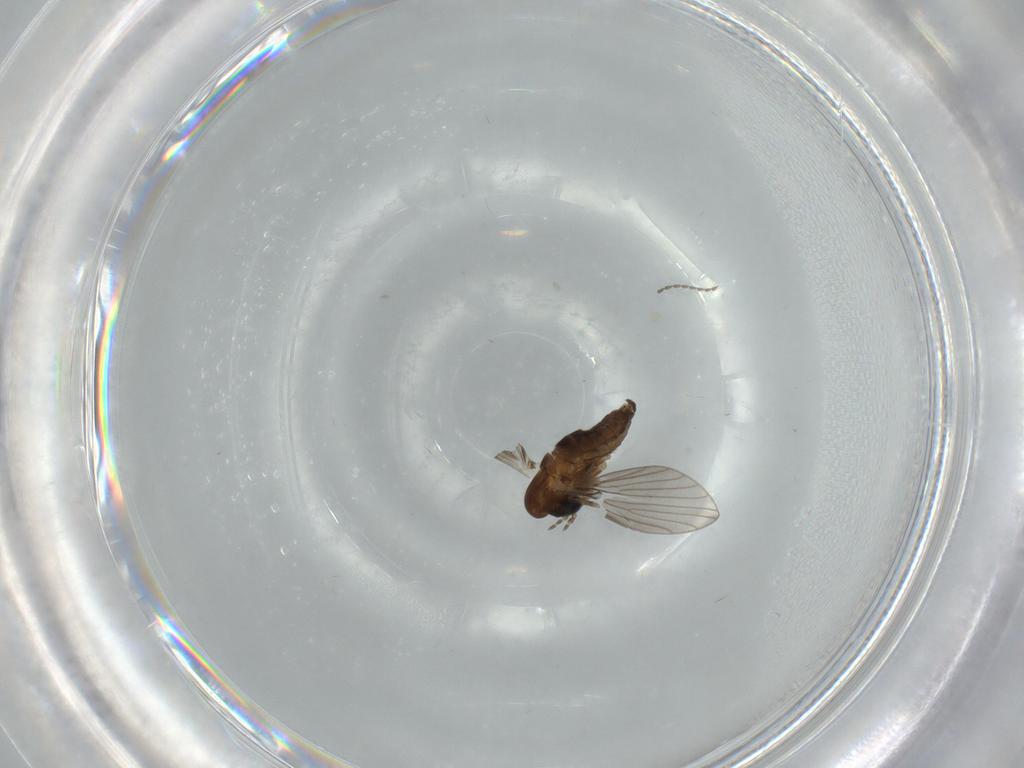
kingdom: Animalia
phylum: Arthropoda
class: Insecta
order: Diptera
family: Psychodidae
